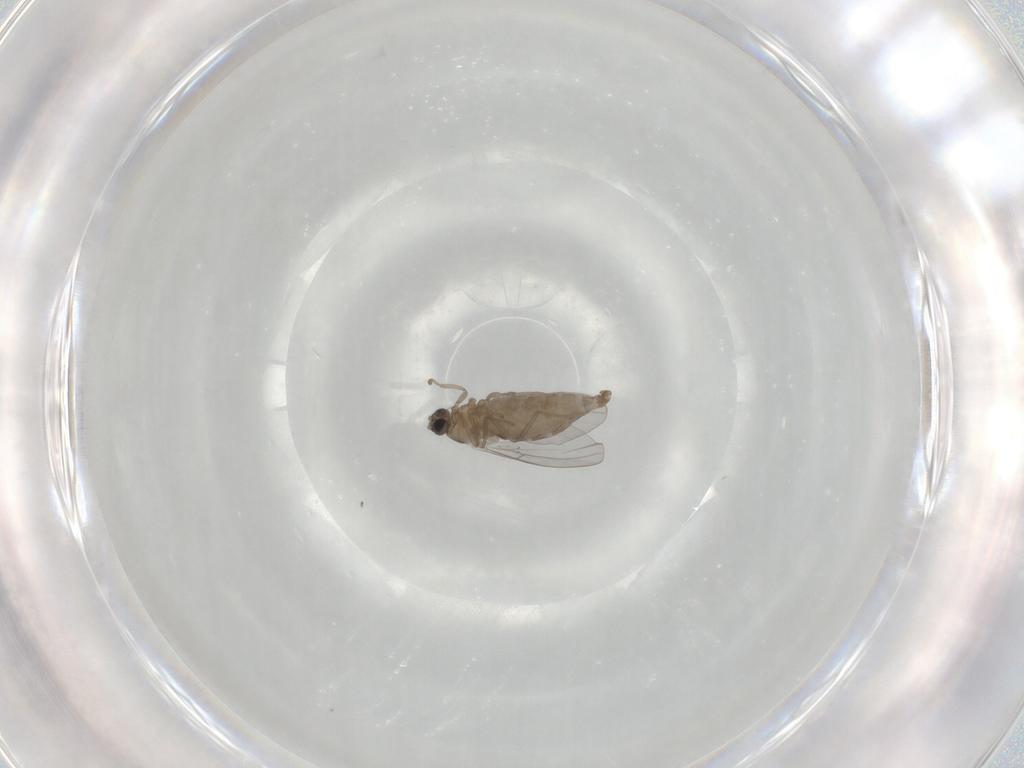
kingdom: Animalia
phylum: Arthropoda
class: Insecta
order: Diptera
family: Cecidomyiidae
